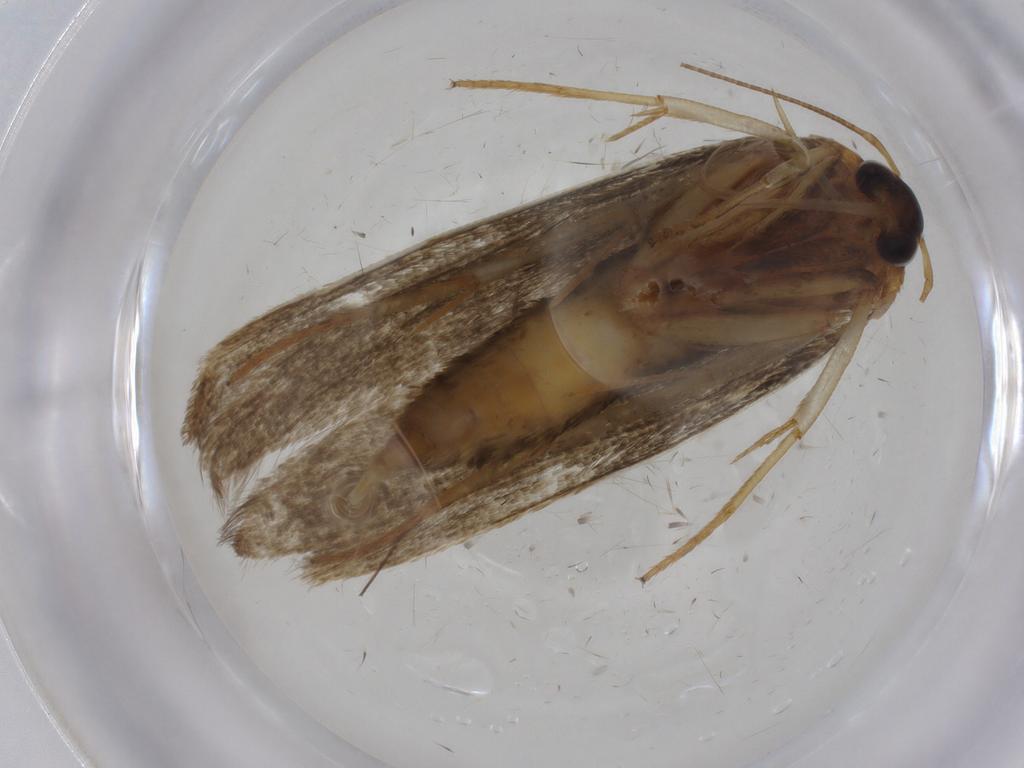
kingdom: Animalia
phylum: Arthropoda
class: Insecta
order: Lepidoptera
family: Blastobasidae
